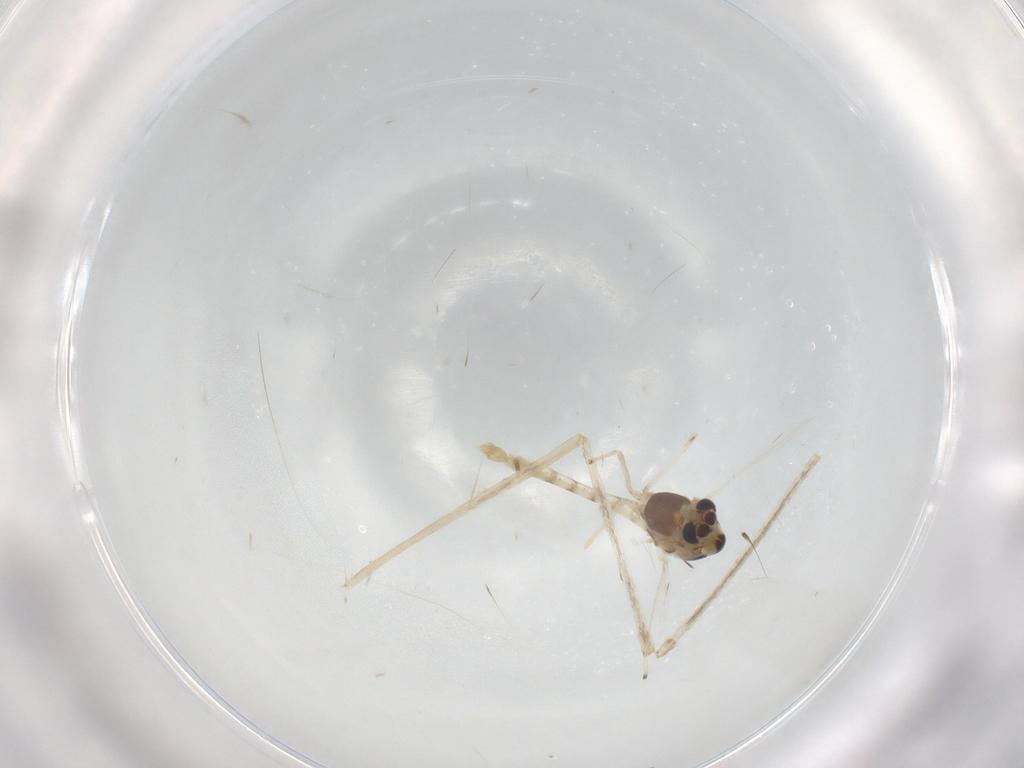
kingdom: Animalia
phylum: Arthropoda
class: Insecta
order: Diptera
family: Chironomidae
